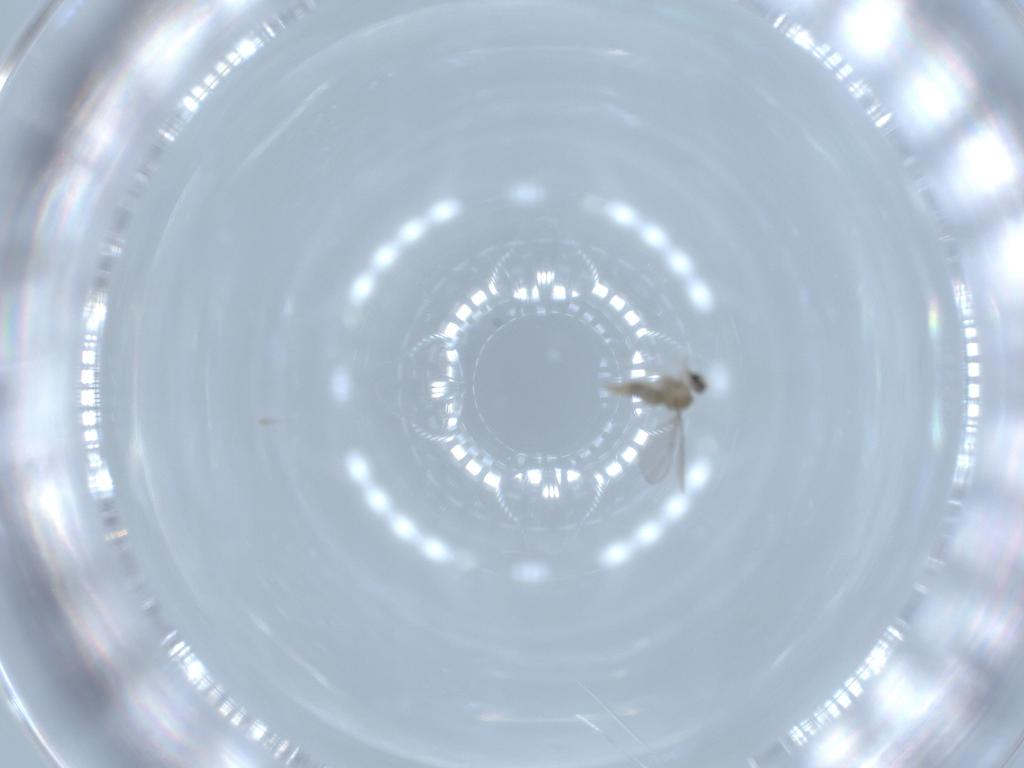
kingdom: Animalia
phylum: Arthropoda
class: Insecta
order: Diptera
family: Cecidomyiidae
